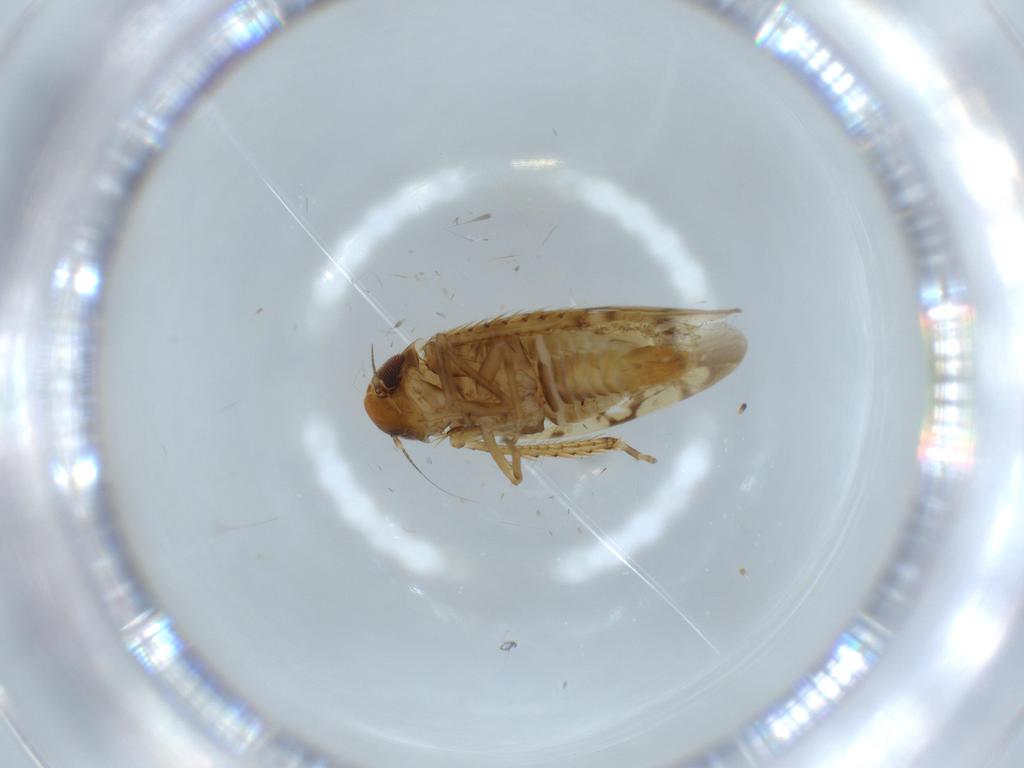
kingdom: Animalia
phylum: Arthropoda
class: Insecta
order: Hemiptera
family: Cicadellidae
